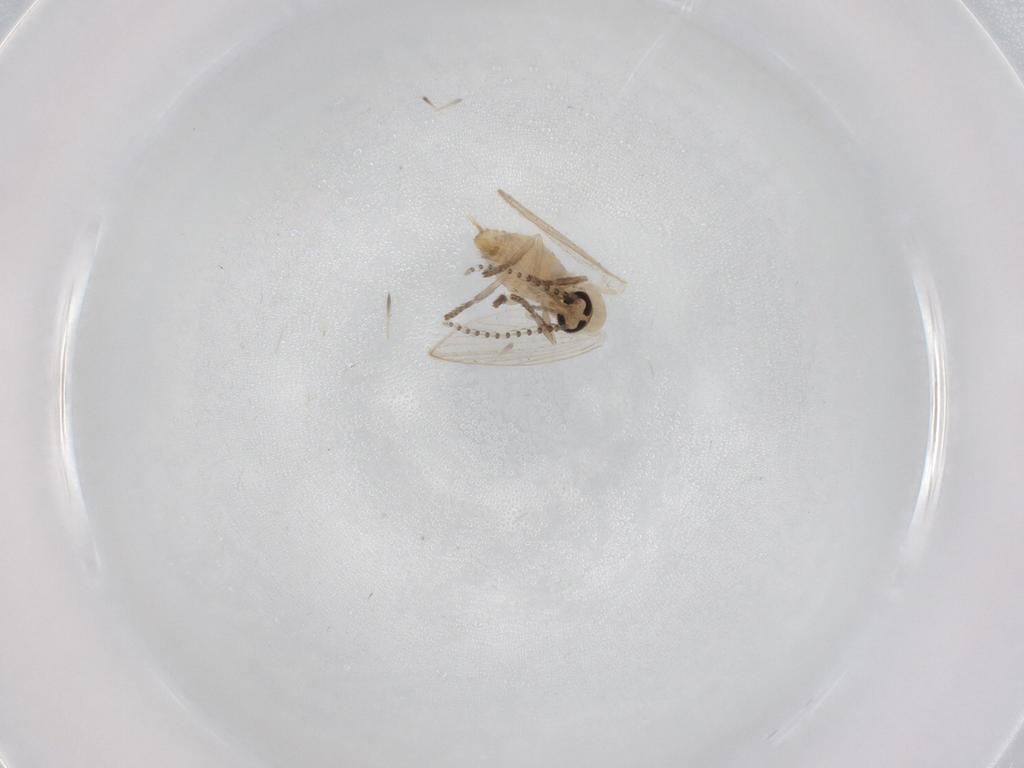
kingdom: Animalia
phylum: Arthropoda
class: Insecta
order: Diptera
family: Psychodidae
